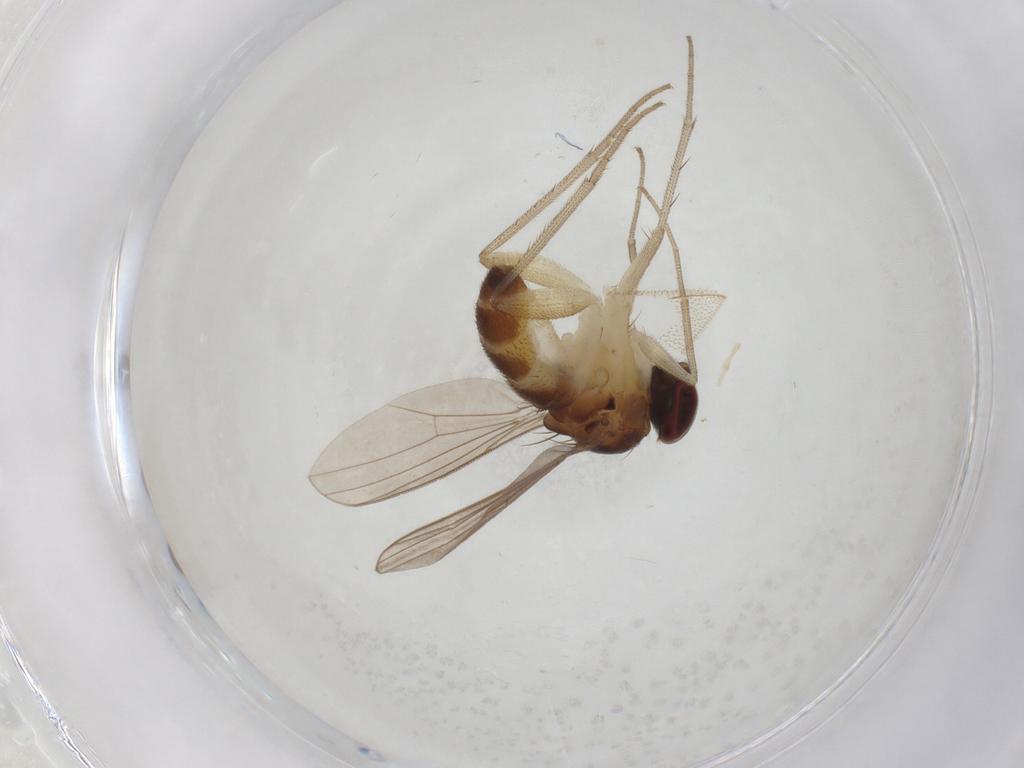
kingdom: Animalia
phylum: Arthropoda
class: Insecta
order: Diptera
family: Dolichopodidae
